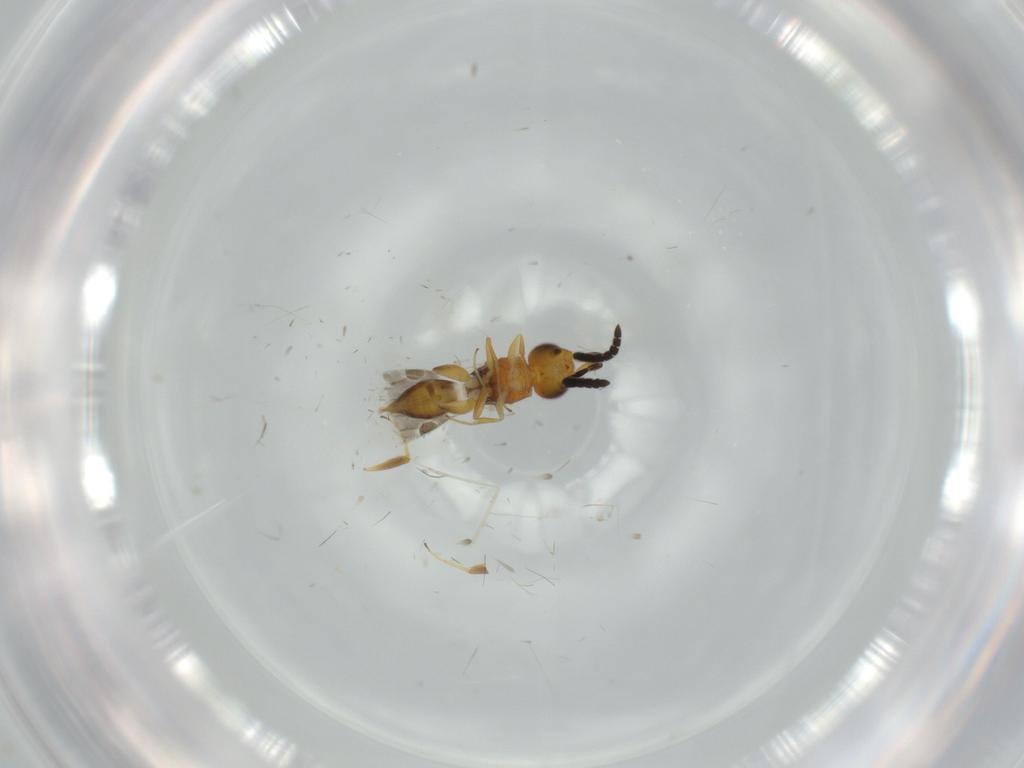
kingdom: Animalia
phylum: Arthropoda
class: Insecta
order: Hymenoptera
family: Megaspilidae
